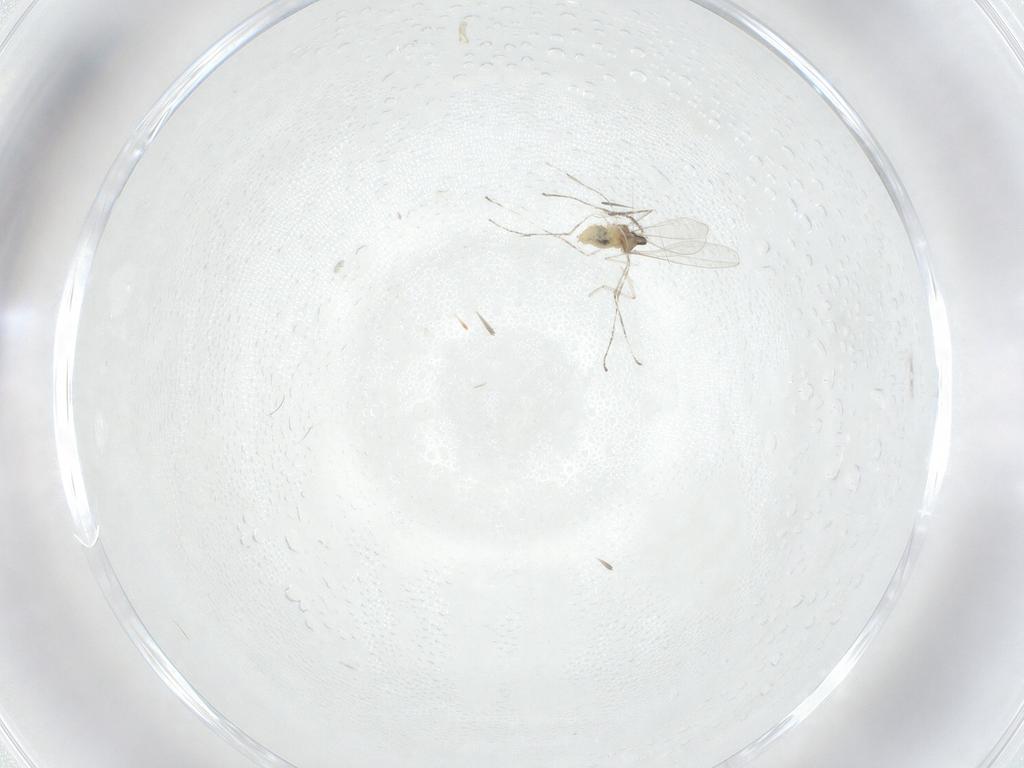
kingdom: Animalia
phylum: Arthropoda
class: Insecta
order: Diptera
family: Cecidomyiidae
